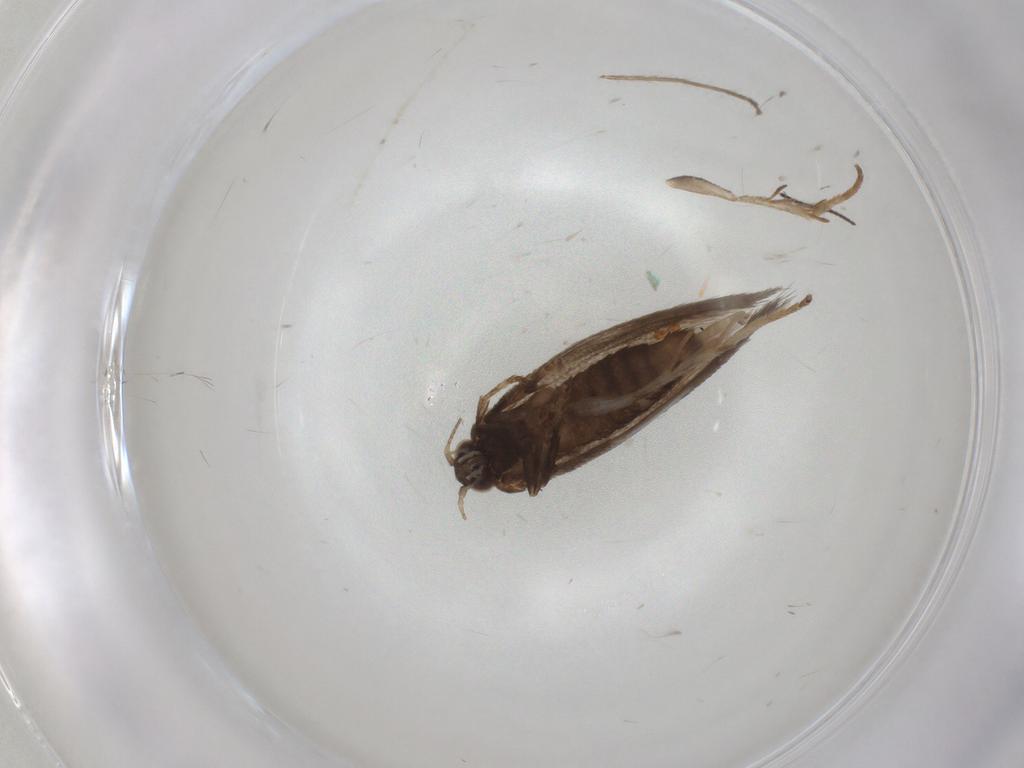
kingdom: Animalia
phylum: Arthropoda
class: Insecta
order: Lepidoptera
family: Nepticulidae
